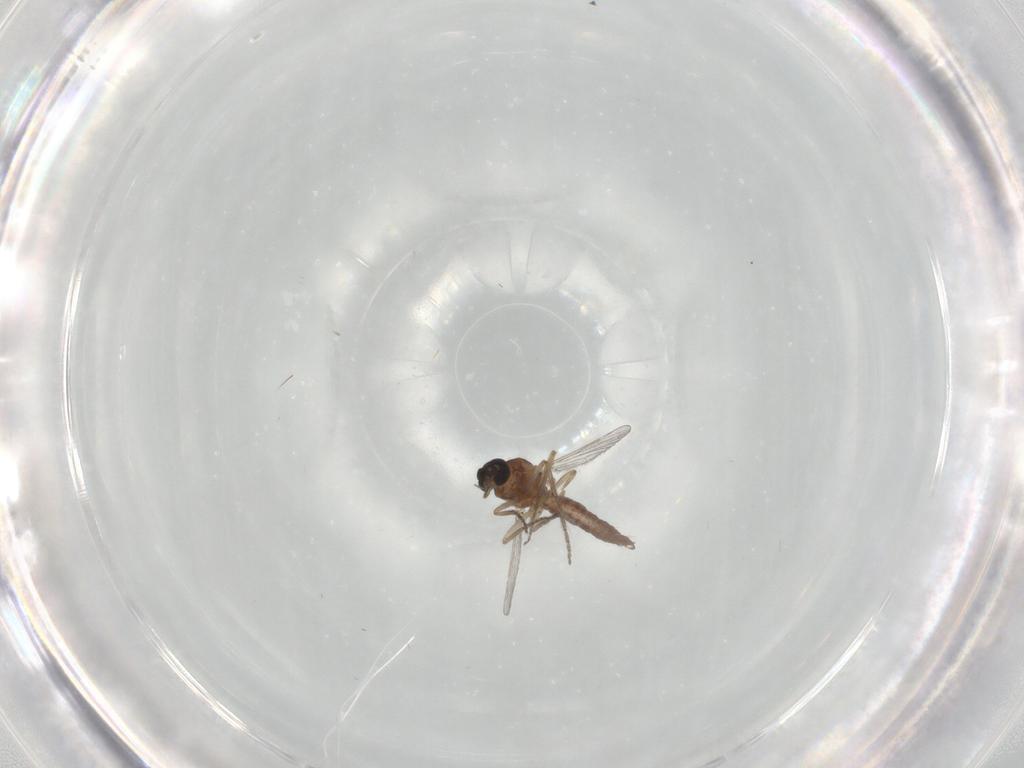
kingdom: Animalia
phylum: Arthropoda
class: Insecta
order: Diptera
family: Ceratopogonidae
